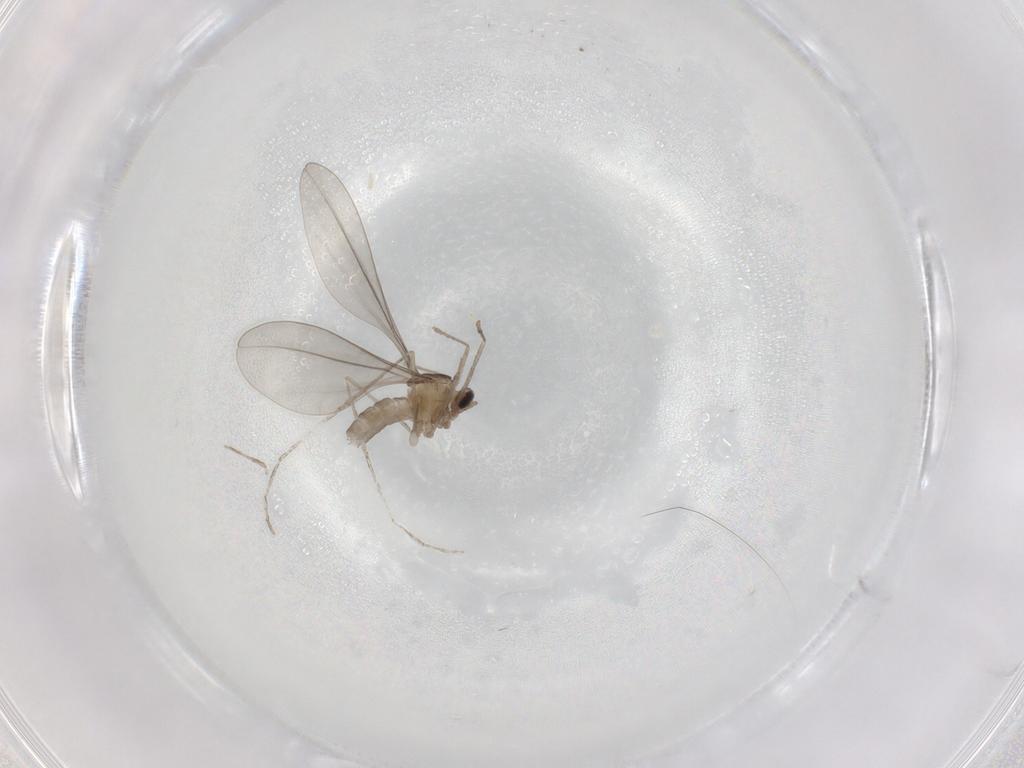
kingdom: Animalia
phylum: Arthropoda
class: Insecta
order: Diptera
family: Cecidomyiidae
